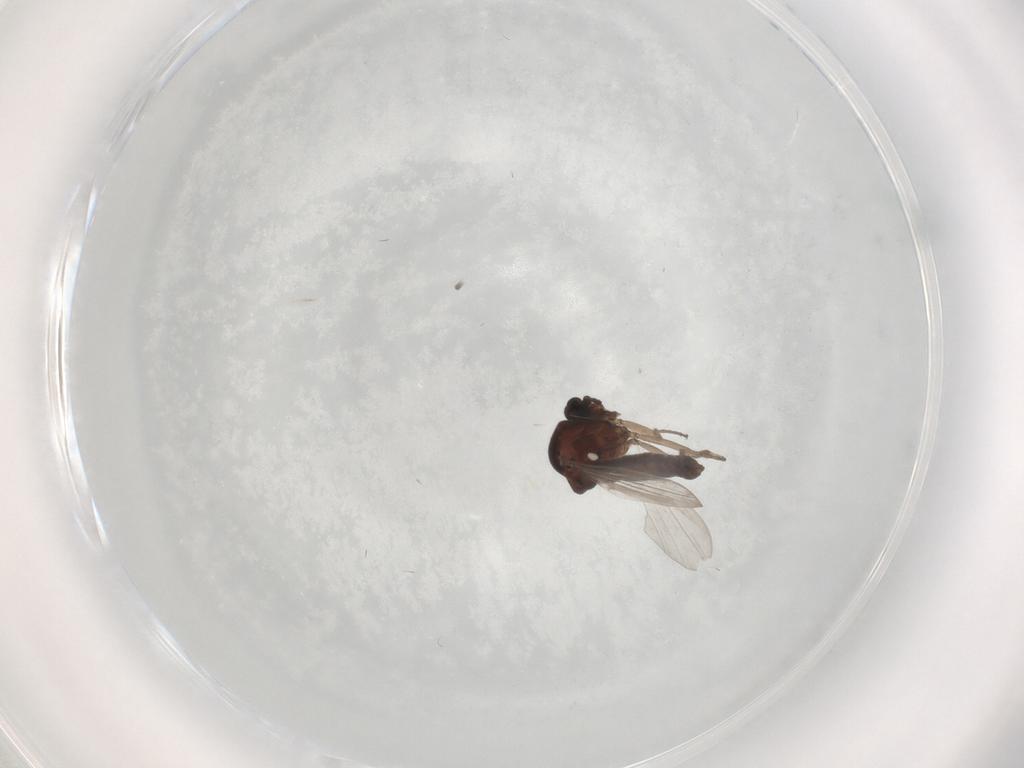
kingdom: Animalia
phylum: Arthropoda
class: Insecta
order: Diptera
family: Ceratopogonidae
